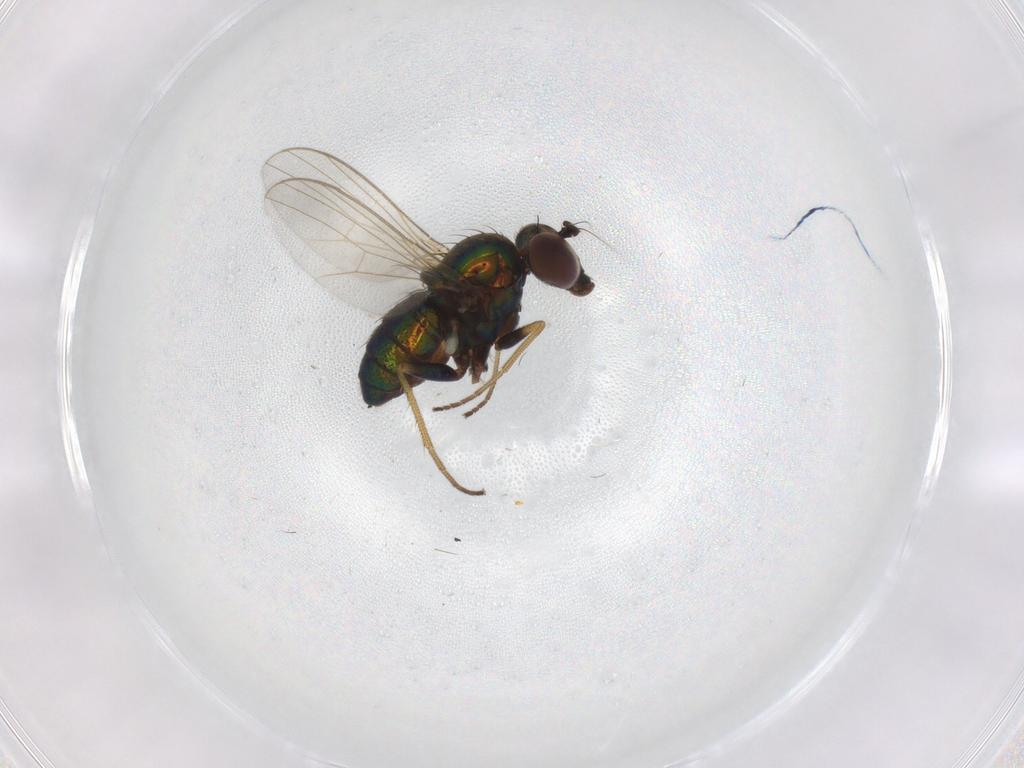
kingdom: Animalia
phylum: Arthropoda
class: Insecta
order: Diptera
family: Dolichopodidae
